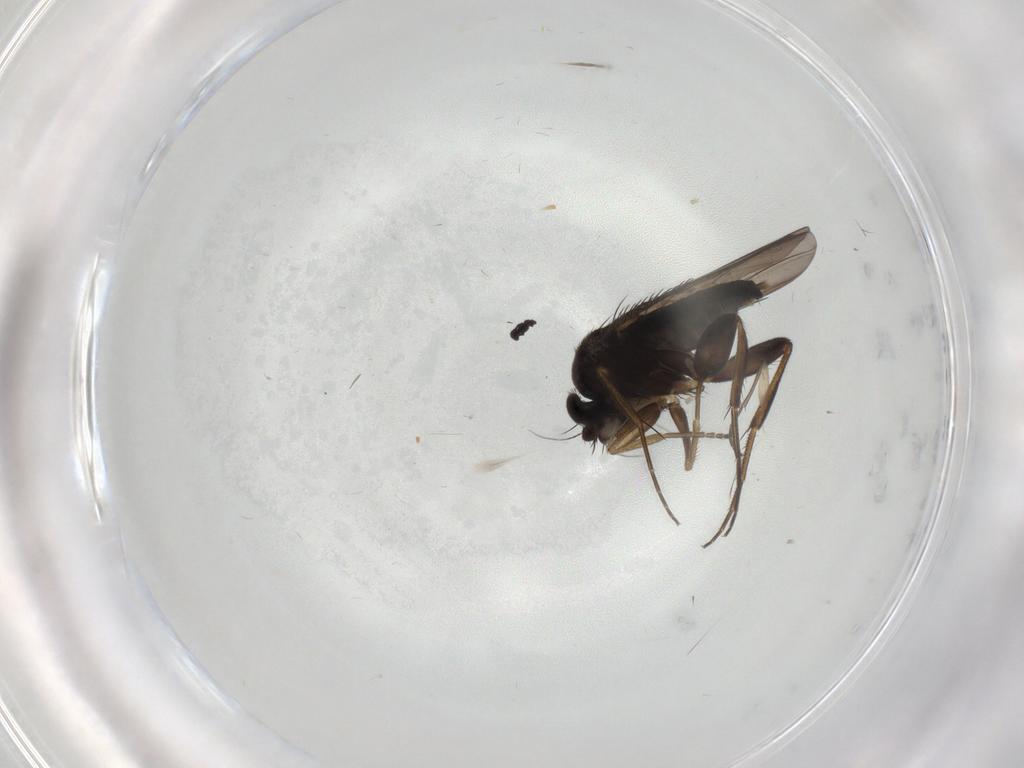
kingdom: Animalia
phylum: Arthropoda
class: Insecta
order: Diptera
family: Phoridae
